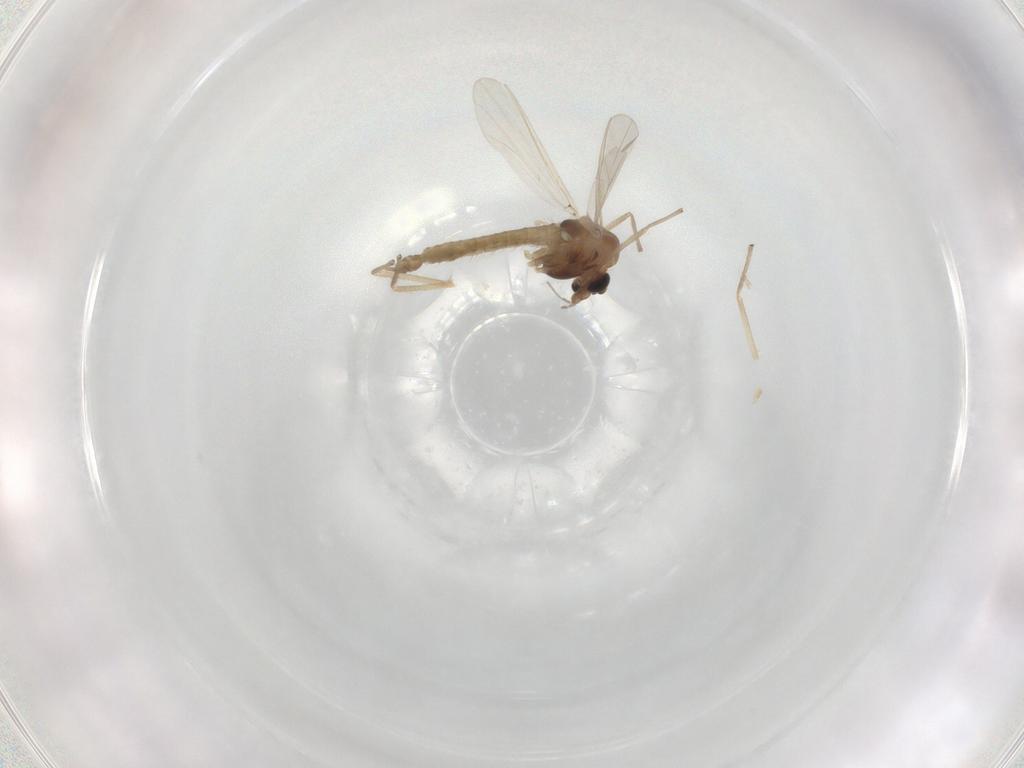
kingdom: Animalia
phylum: Arthropoda
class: Insecta
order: Diptera
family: Chironomidae
